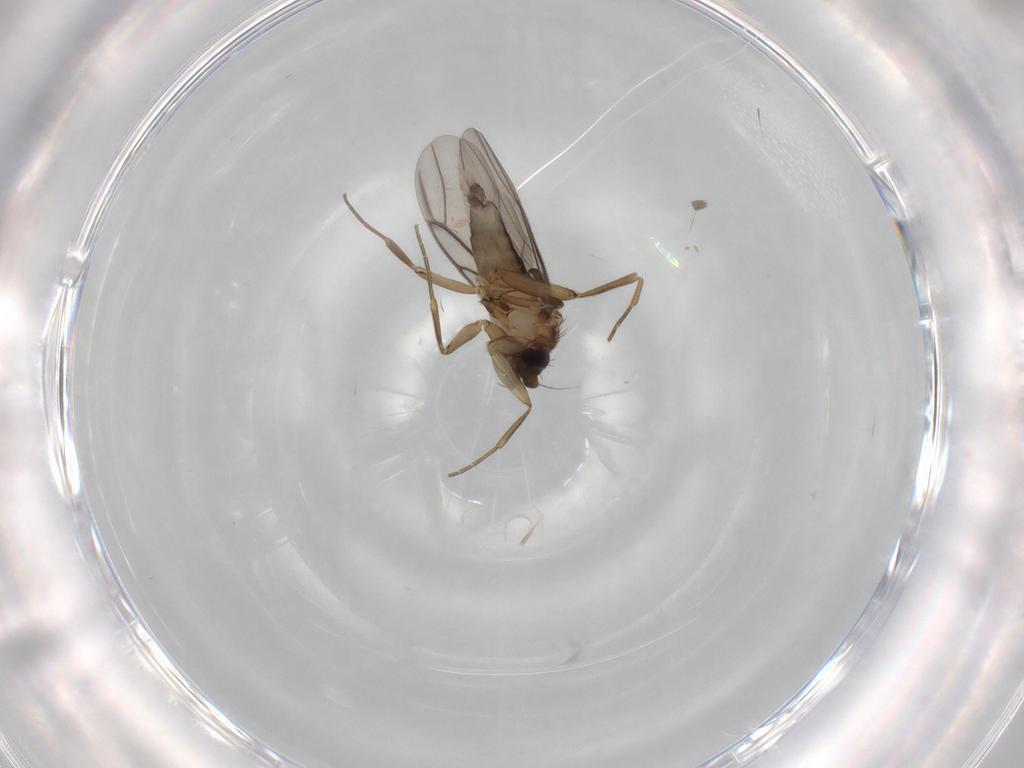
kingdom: Animalia
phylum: Arthropoda
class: Insecta
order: Diptera
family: Phoridae
